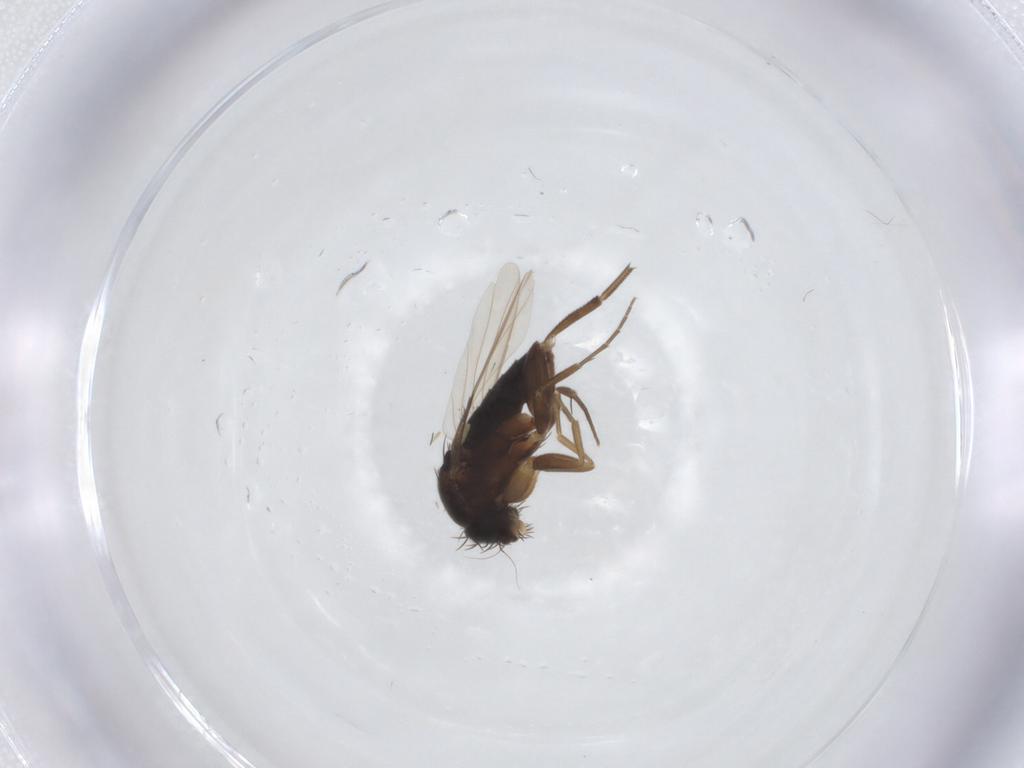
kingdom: Animalia
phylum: Arthropoda
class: Insecta
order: Diptera
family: Phoridae
